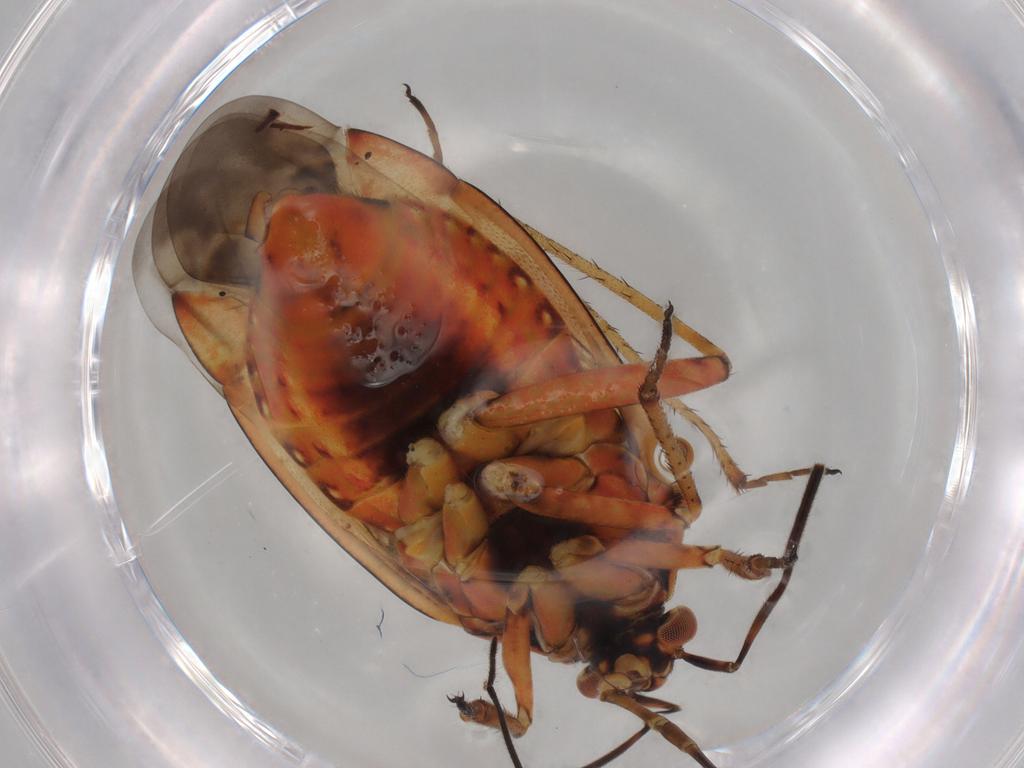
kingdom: Animalia
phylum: Arthropoda
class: Insecta
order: Hemiptera
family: Miridae
